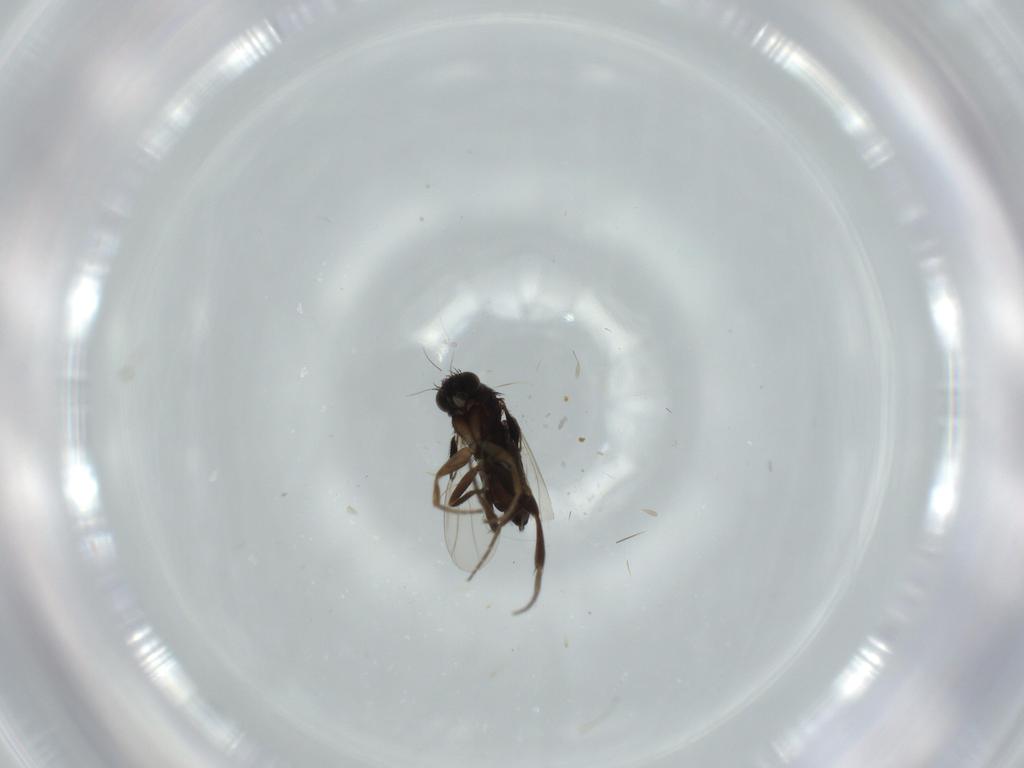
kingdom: Animalia
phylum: Arthropoda
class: Insecta
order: Diptera
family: Phoridae
